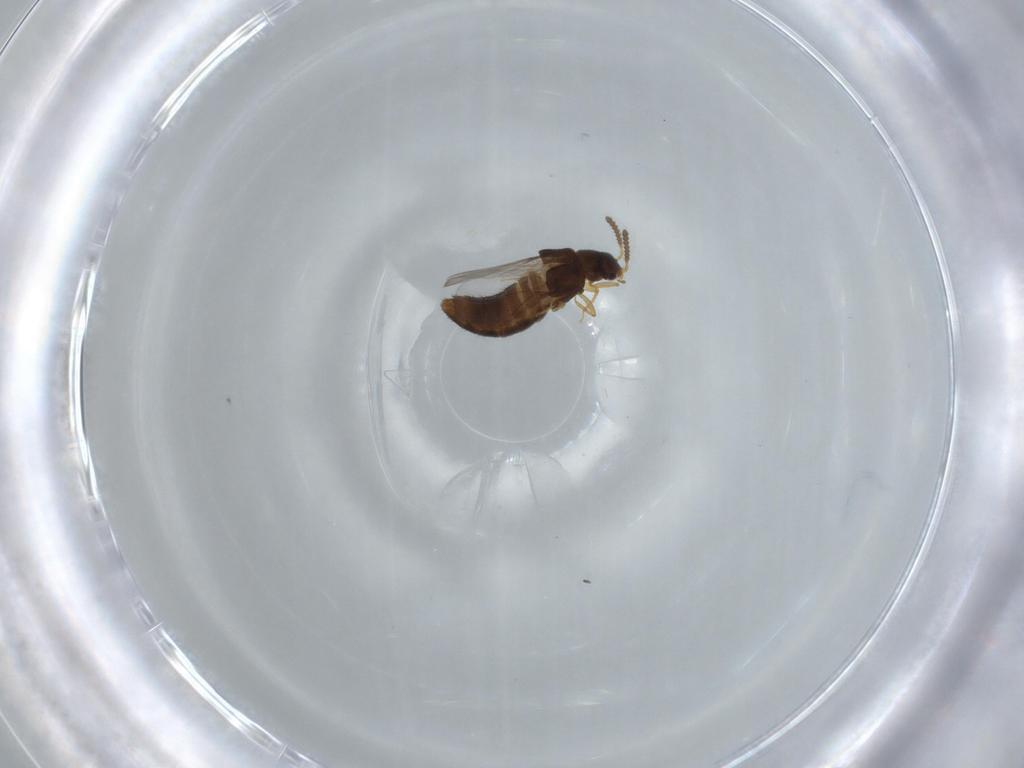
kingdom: Animalia
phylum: Arthropoda
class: Insecta
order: Coleoptera
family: Staphylinidae
